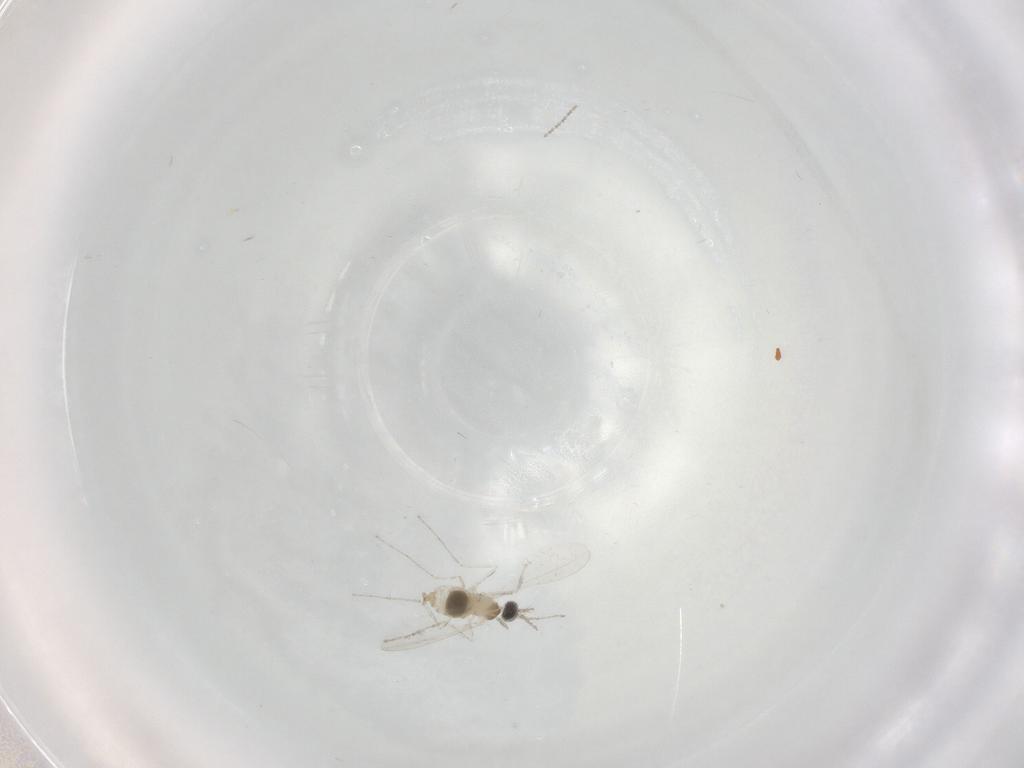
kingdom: Animalia
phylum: Arthropoda
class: Insecta
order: Diptera
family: Cecidomyiidae
